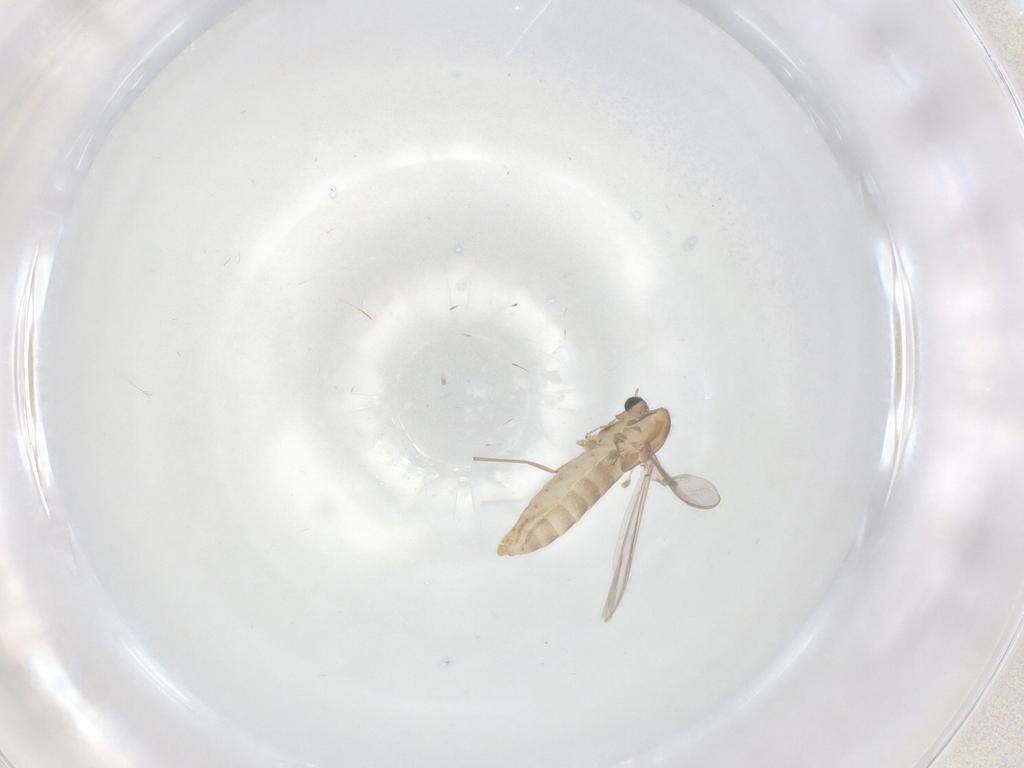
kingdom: Animalia
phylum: Arthropoda
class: Insecta
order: Diptera
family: Chironomidae
